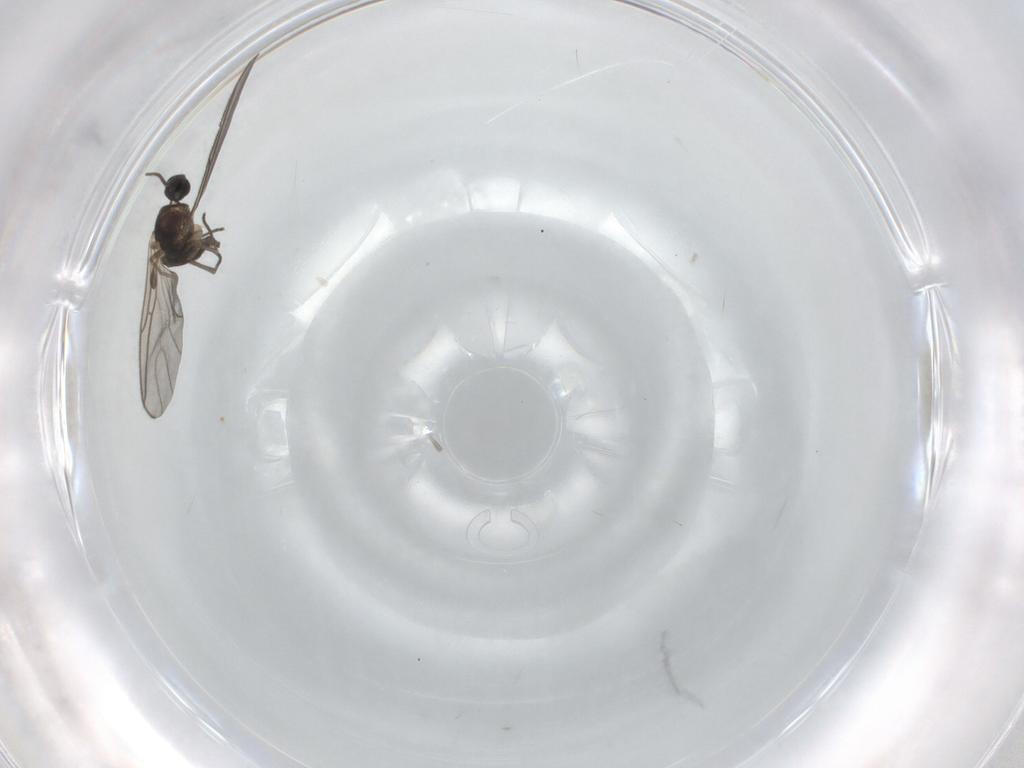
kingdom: Animalia
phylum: Arthropoda
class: Insecta
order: Diptera
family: Sciaridae
